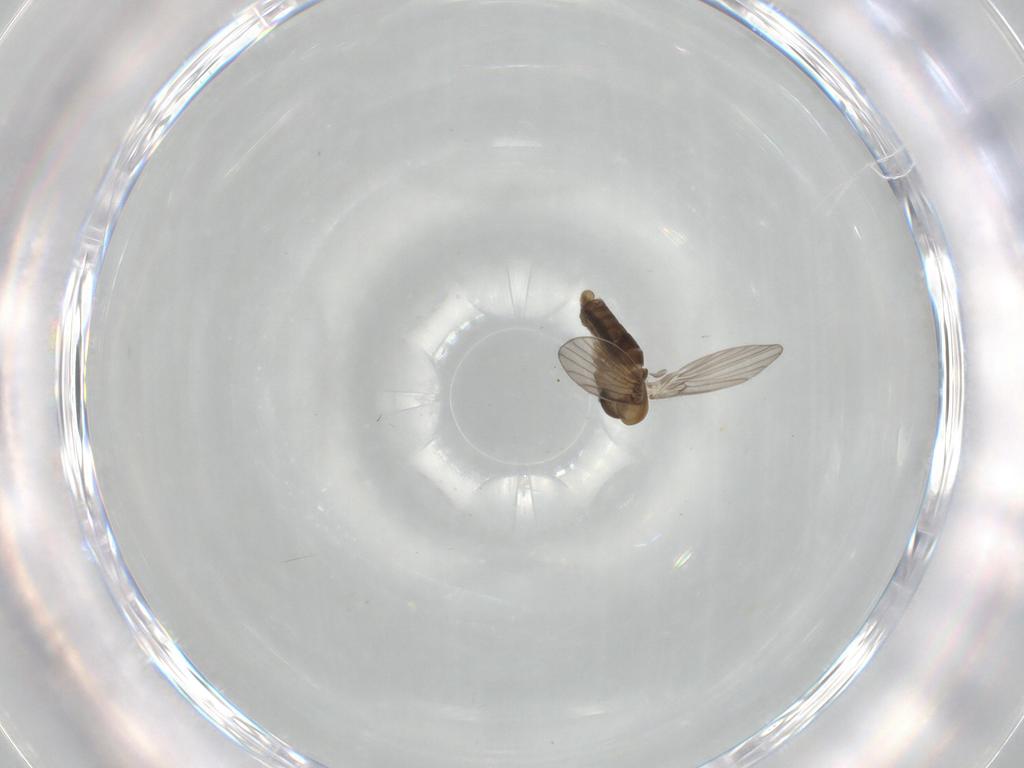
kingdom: Animalia
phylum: Arthropoda
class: Insecta
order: Diptera
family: Psychodidae
